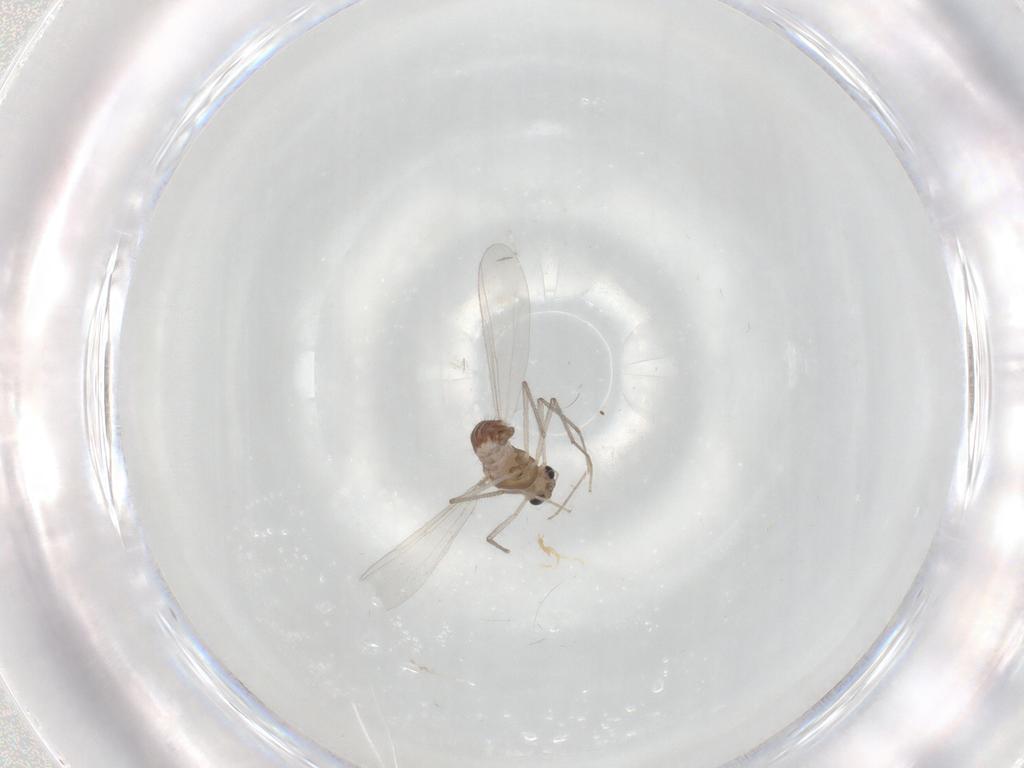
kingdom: Animalia
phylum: Arthropoda
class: Insecta
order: Diptera
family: Chironomidae
